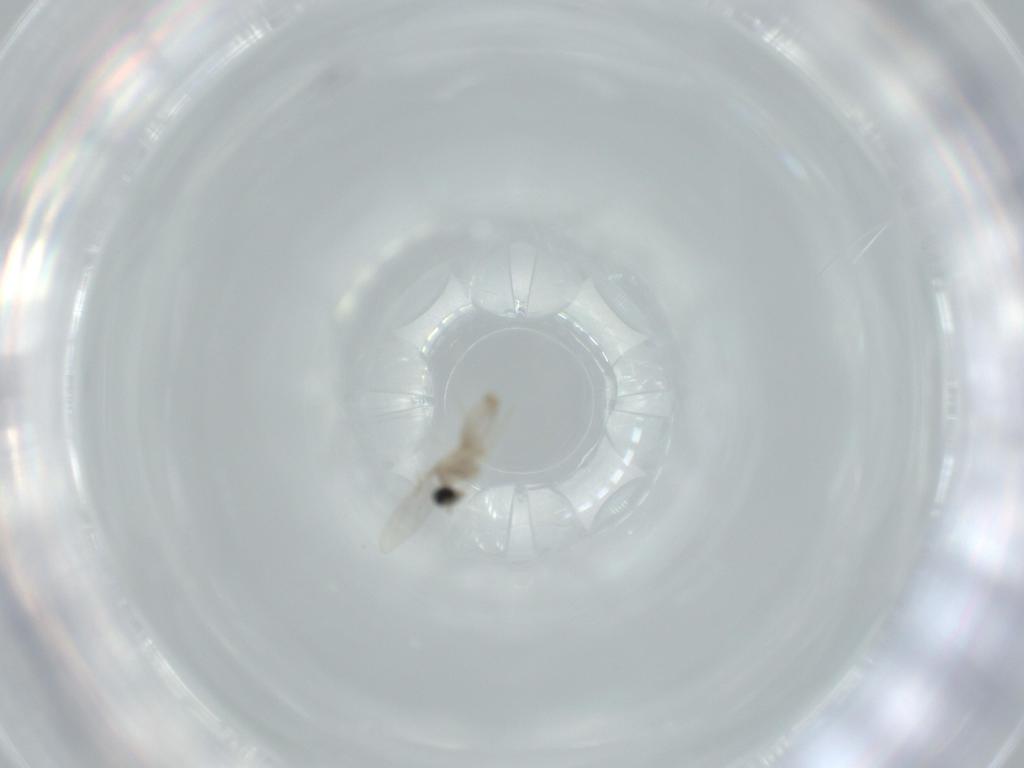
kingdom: Animalia
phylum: Arthropoda
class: Insecta
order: Diptera
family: Cecidomyiidae
